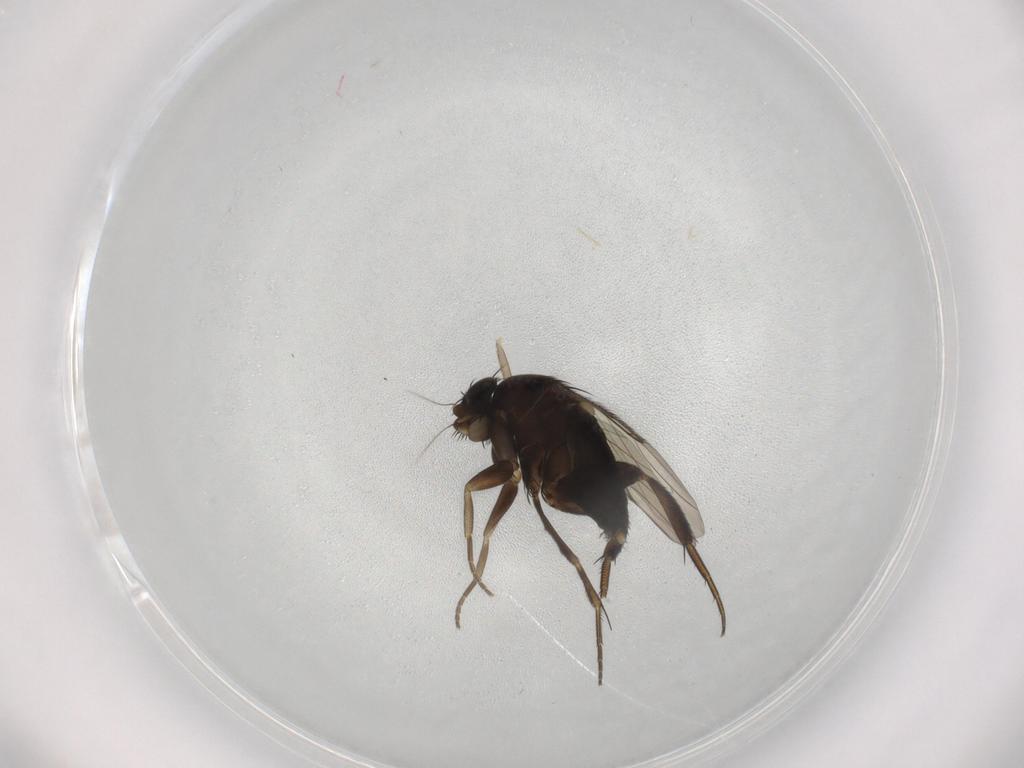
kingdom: Animalia
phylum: Arthropoda
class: Insecta
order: Diptera
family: Phoridae
